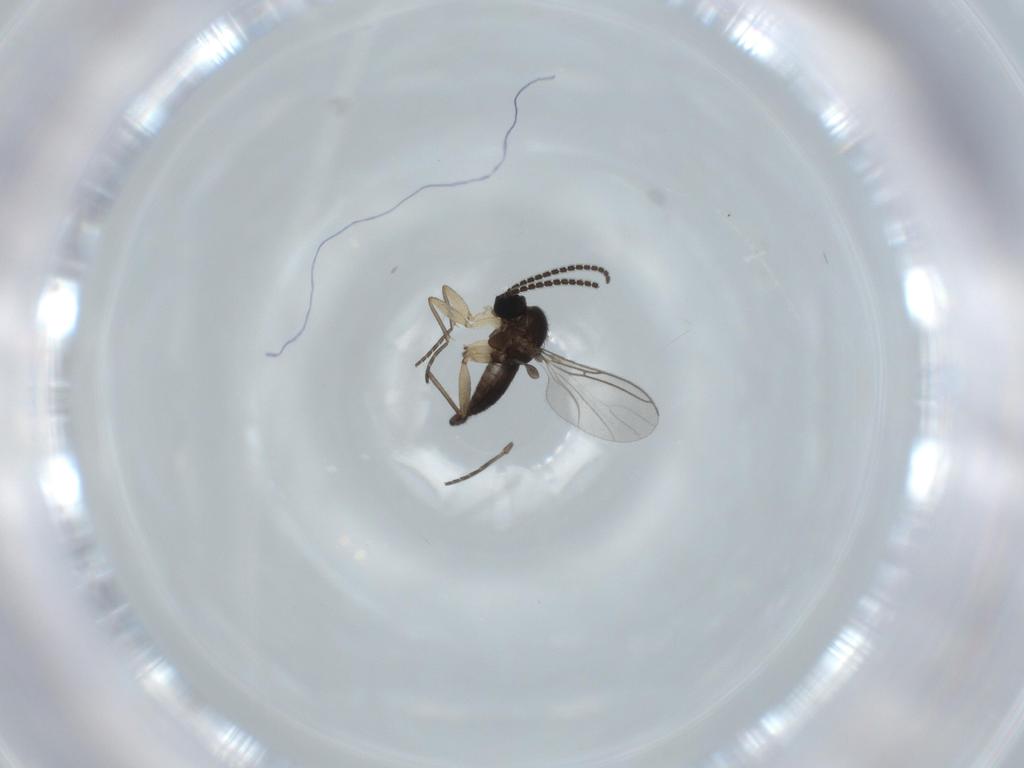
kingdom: Animalia
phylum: Arthropoda
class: Insecta
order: Diptera
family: Sciaridae
